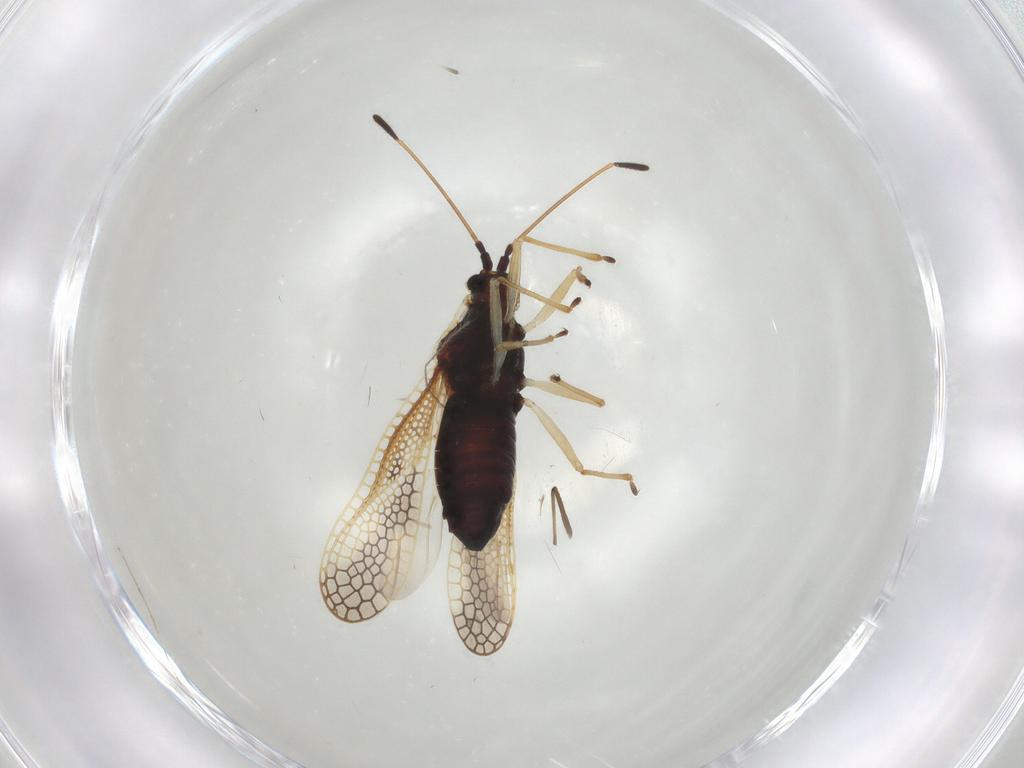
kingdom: Animalia
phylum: Arthropoda
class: Insecta
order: Hemiptera
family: Tingidae
